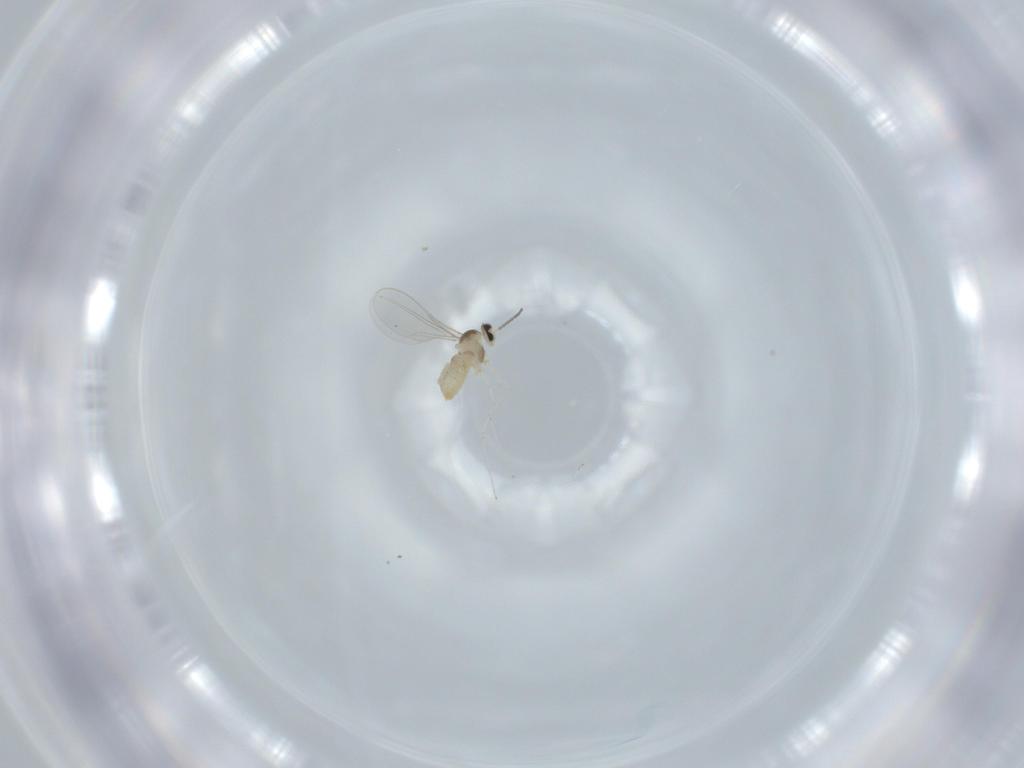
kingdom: Animalia
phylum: Arthropoda
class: Insecta
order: Diptera
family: Cecidomyiidae
